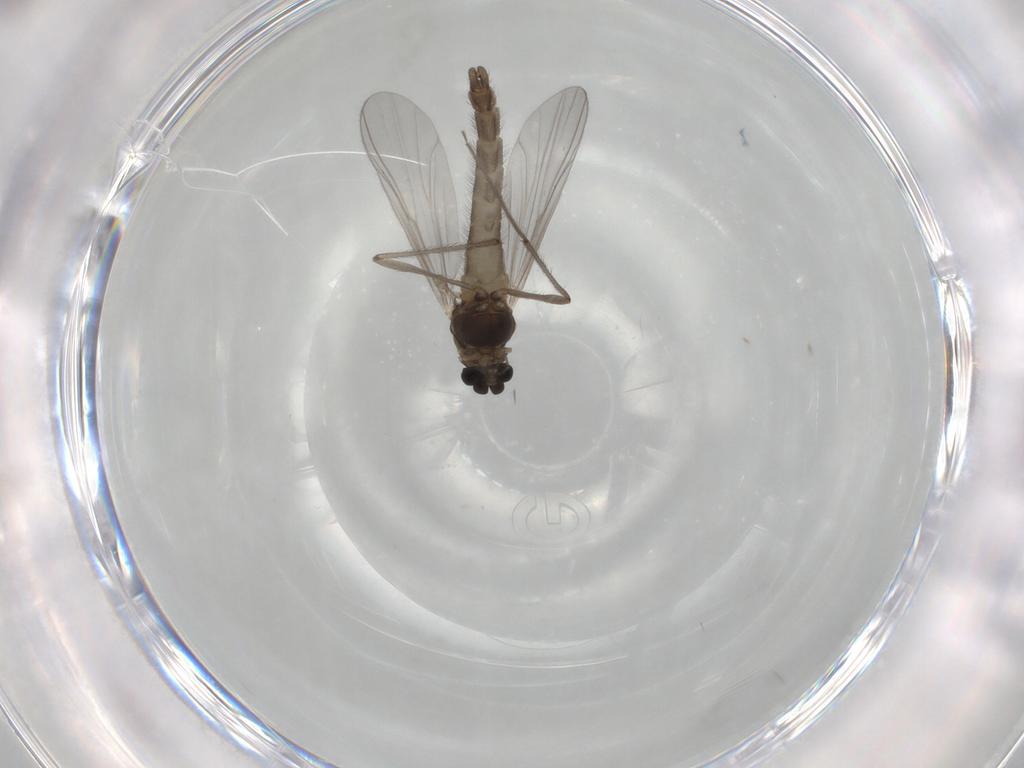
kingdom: Animalia
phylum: Arthropoda
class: Insecta
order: Diptera
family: Chironomidae
